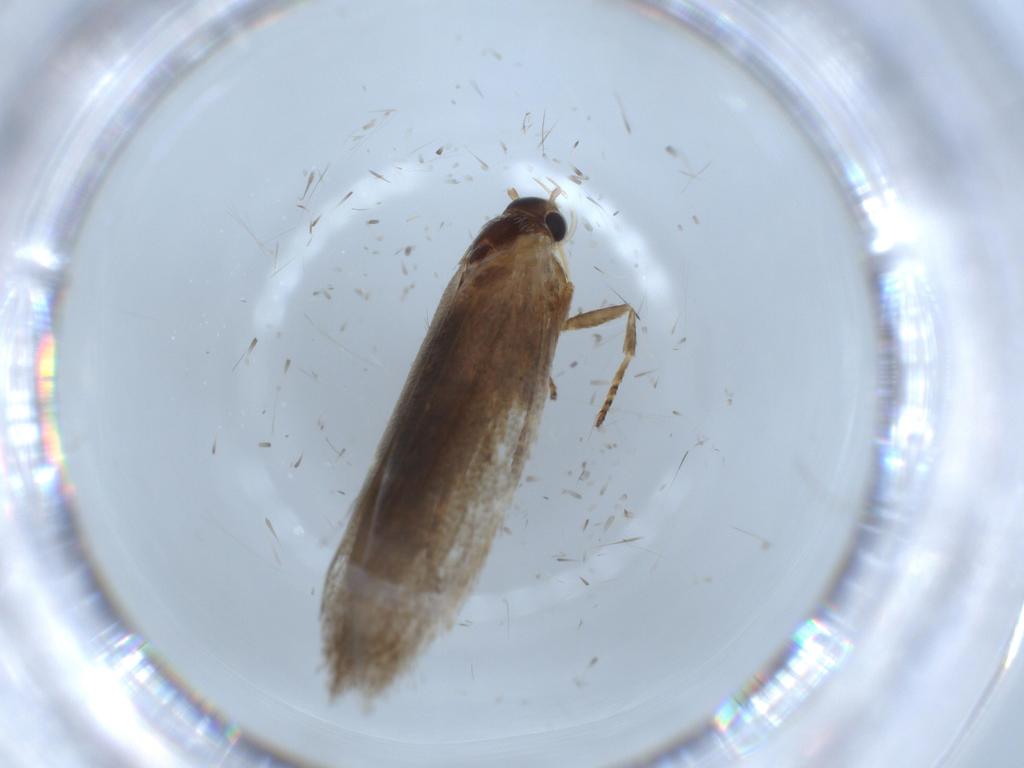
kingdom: Animalia
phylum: Arthropoda
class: Insecta
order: Lepidoptera
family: Oecophoridae
